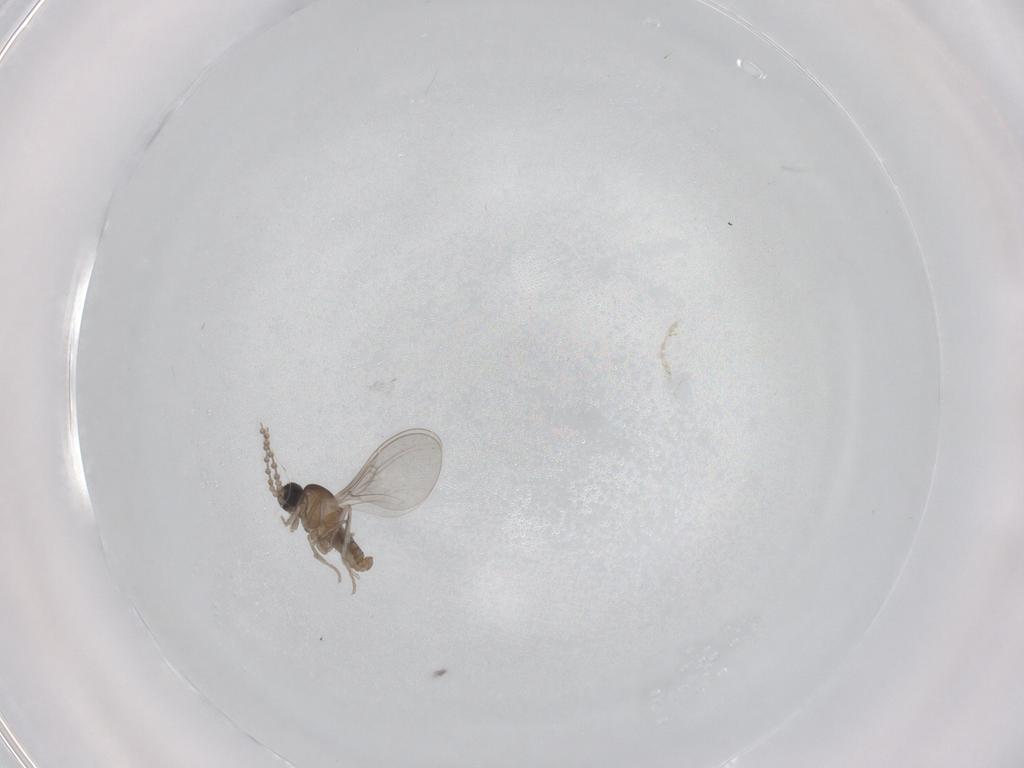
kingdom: Animalia
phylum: Arthropoda
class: Insecta
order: Diptera
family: Cecidomyiidae
